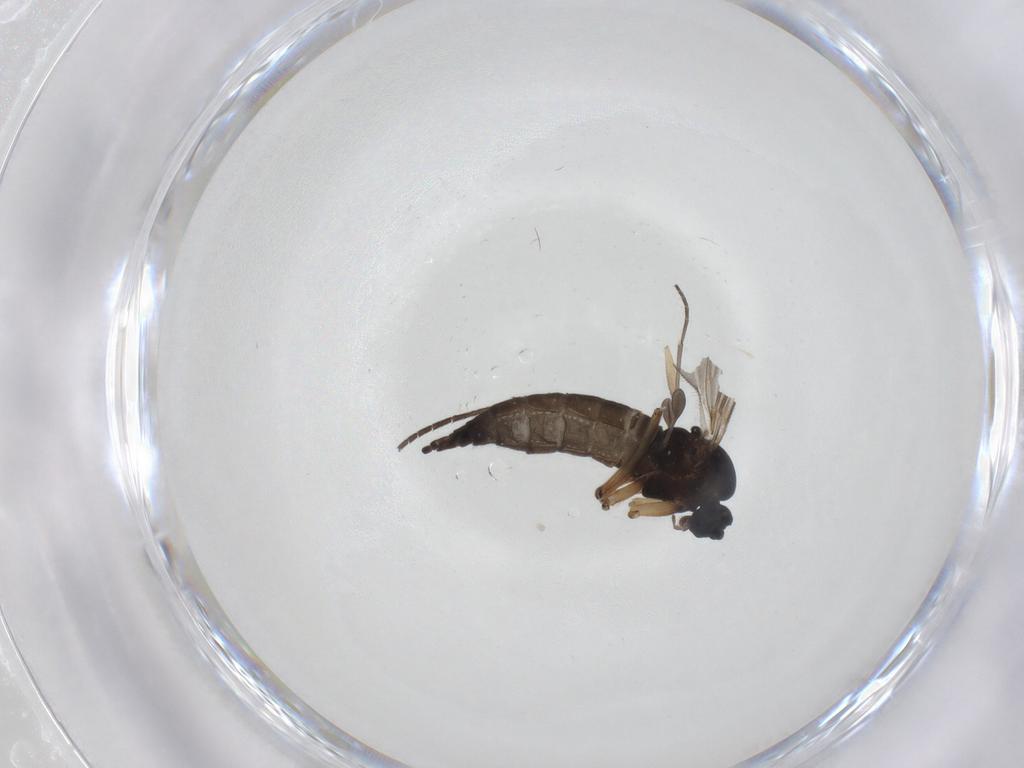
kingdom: Animalia
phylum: Arthropoda
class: Insecta
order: Diptera
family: Sciaridae
